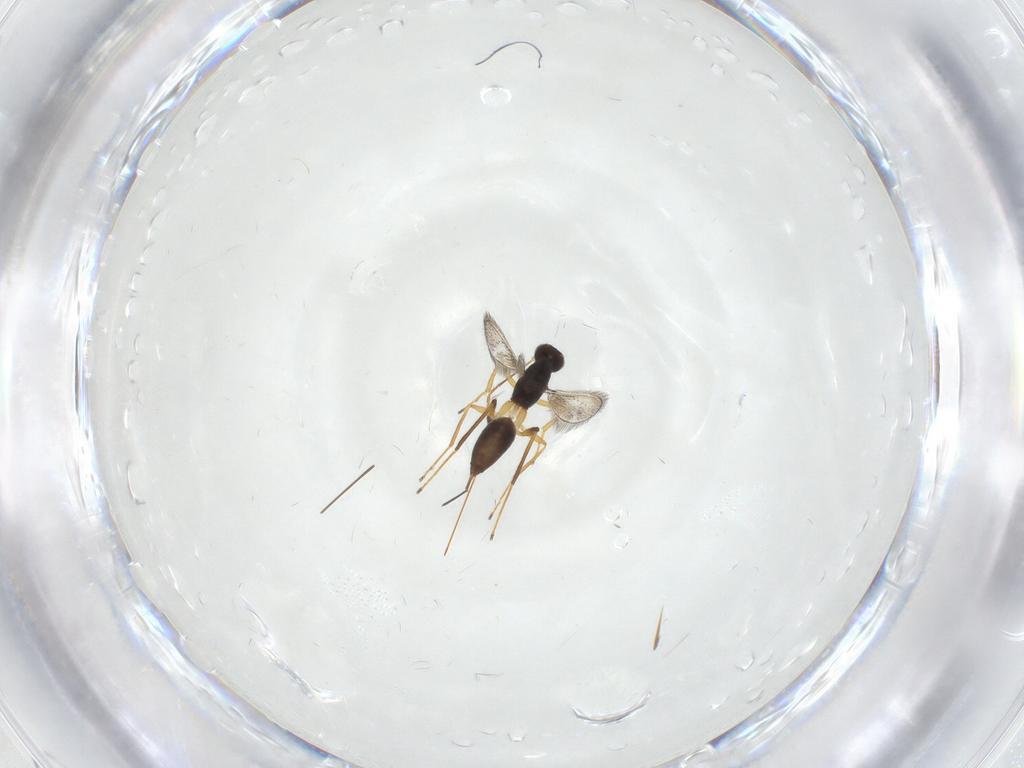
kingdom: Animalia
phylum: Arthropoda
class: Insecta
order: Hymenoptera
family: Mymaridae
